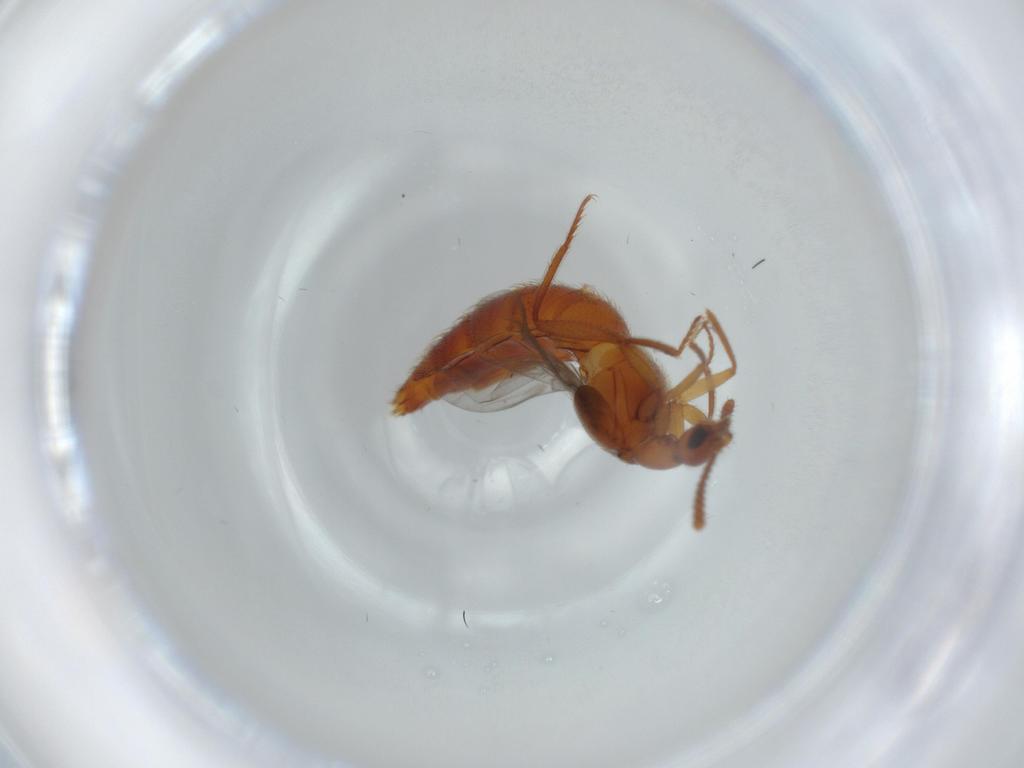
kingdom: Animalia
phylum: Arthropoda
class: Insecta
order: Coleoptera
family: Staphylinidae
